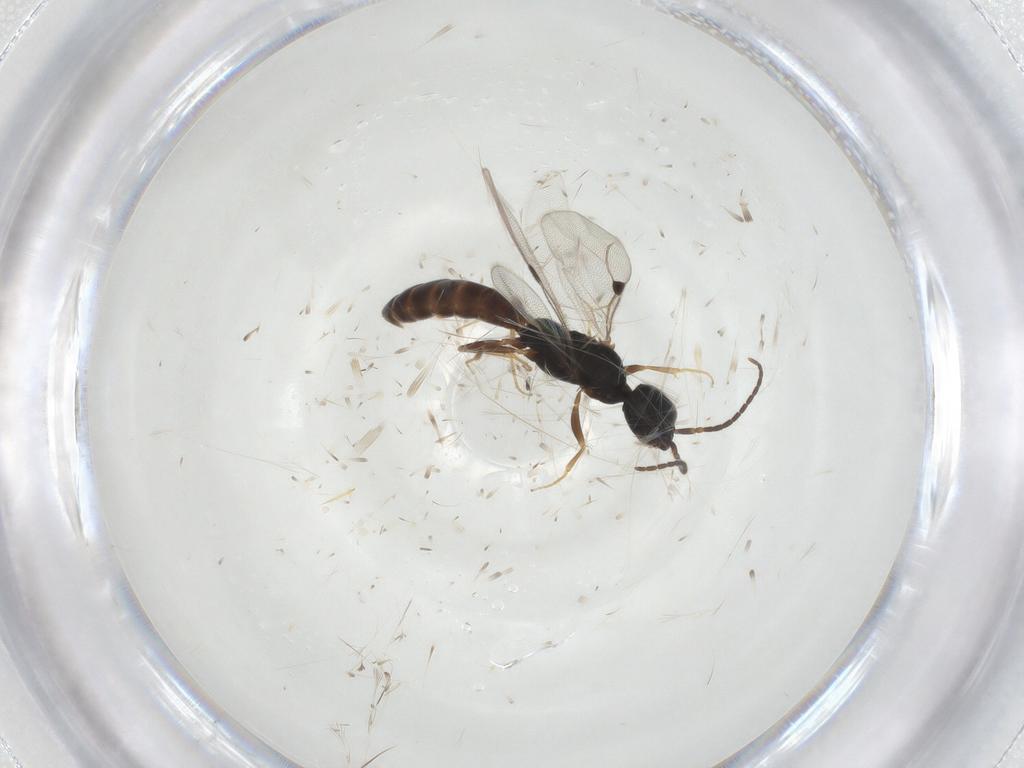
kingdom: Animalia
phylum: Arthropoda
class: Insecta
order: Hymenoptera
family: Bethylidae
